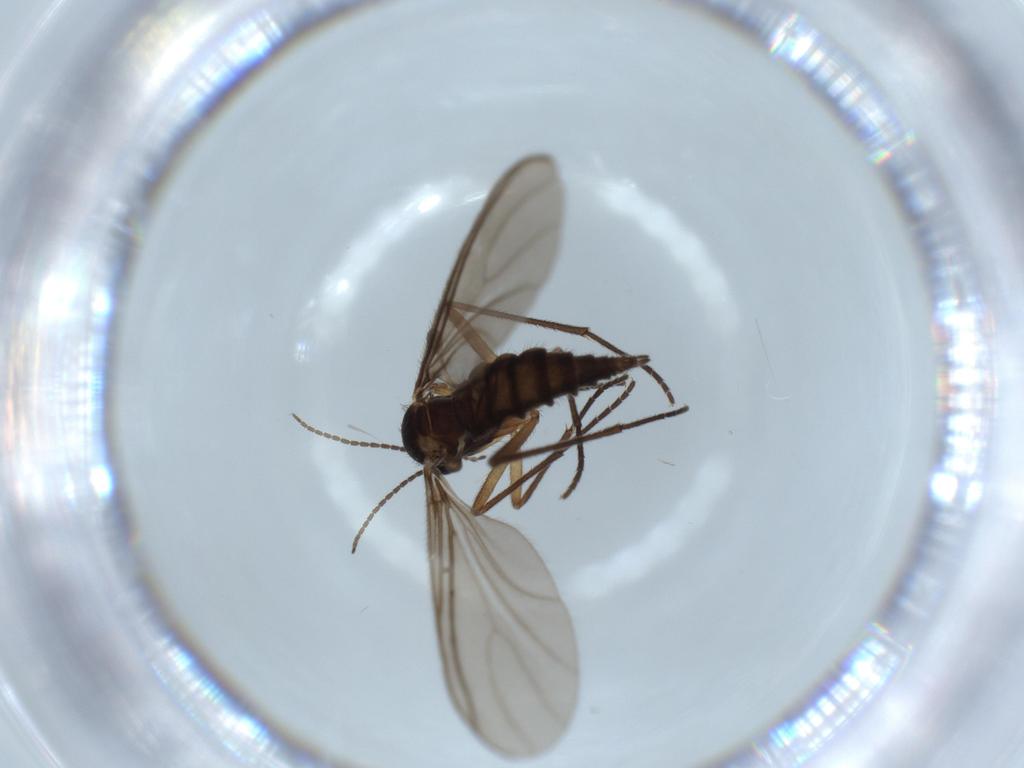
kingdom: Animalia
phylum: Arthropoda
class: Insecta
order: Diptera
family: Sciaridae
